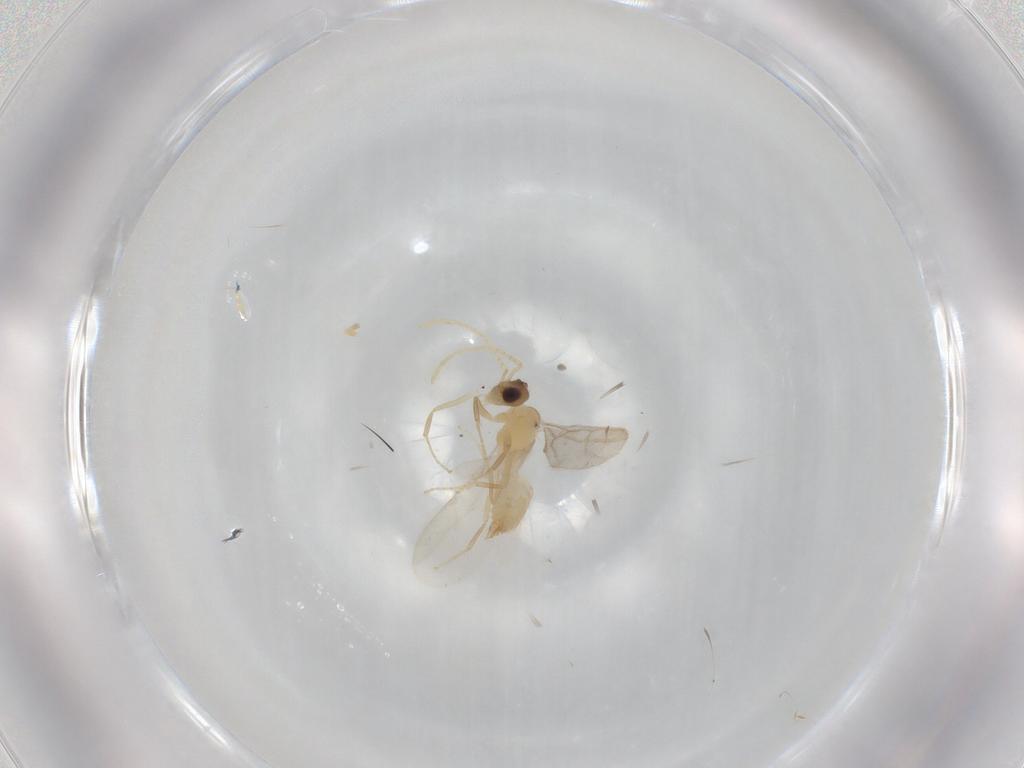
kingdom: Animalia
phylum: Arthropoda
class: Insecta
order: Hymenoptera
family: Formicidae
